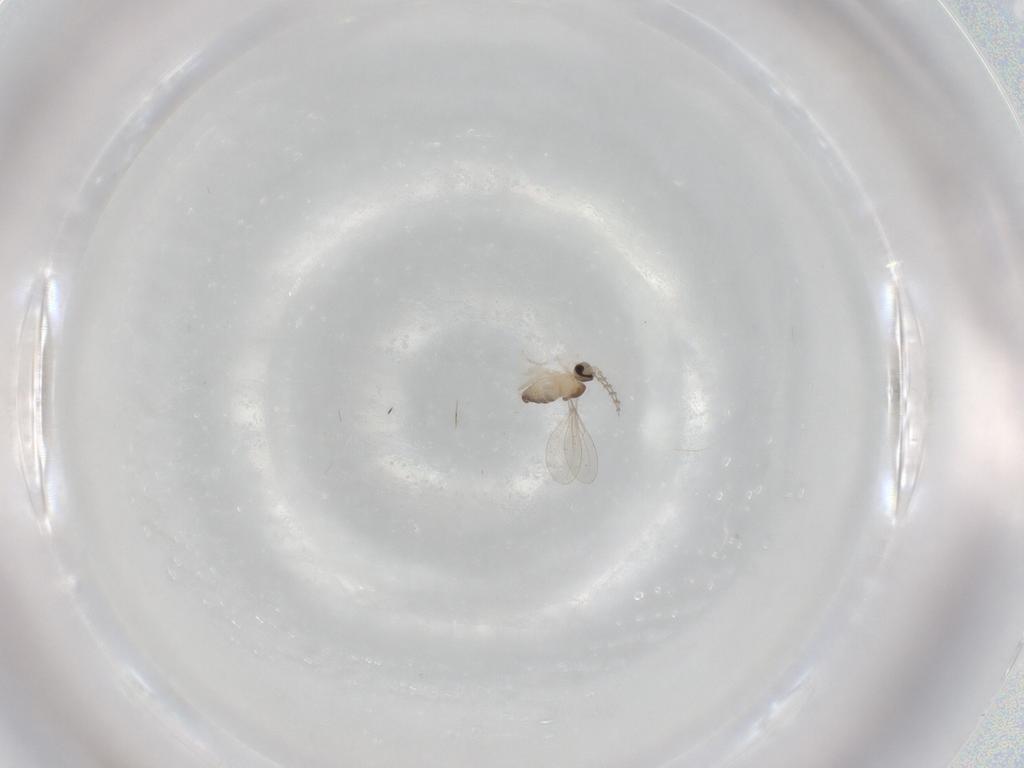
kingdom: Animalia
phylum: Arthropoda
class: Insecta
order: Diptera
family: Cecidomyiidae
